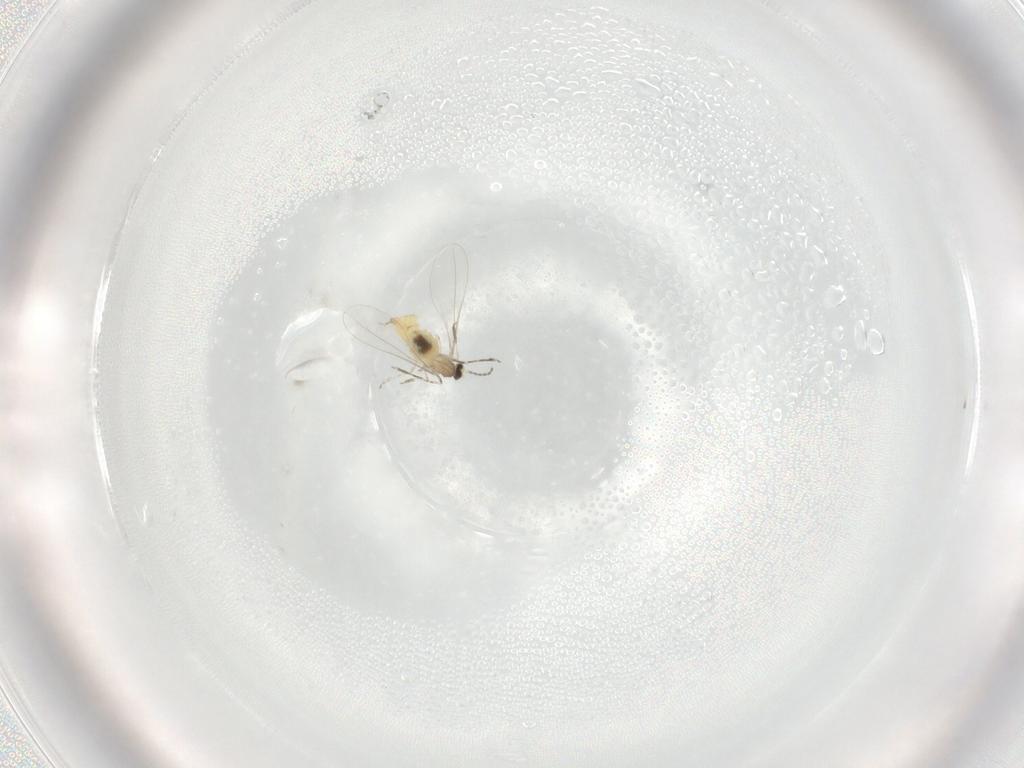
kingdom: Animalia
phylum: Arthropoda
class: Insecta
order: Diptera
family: Cecidomyiidae
